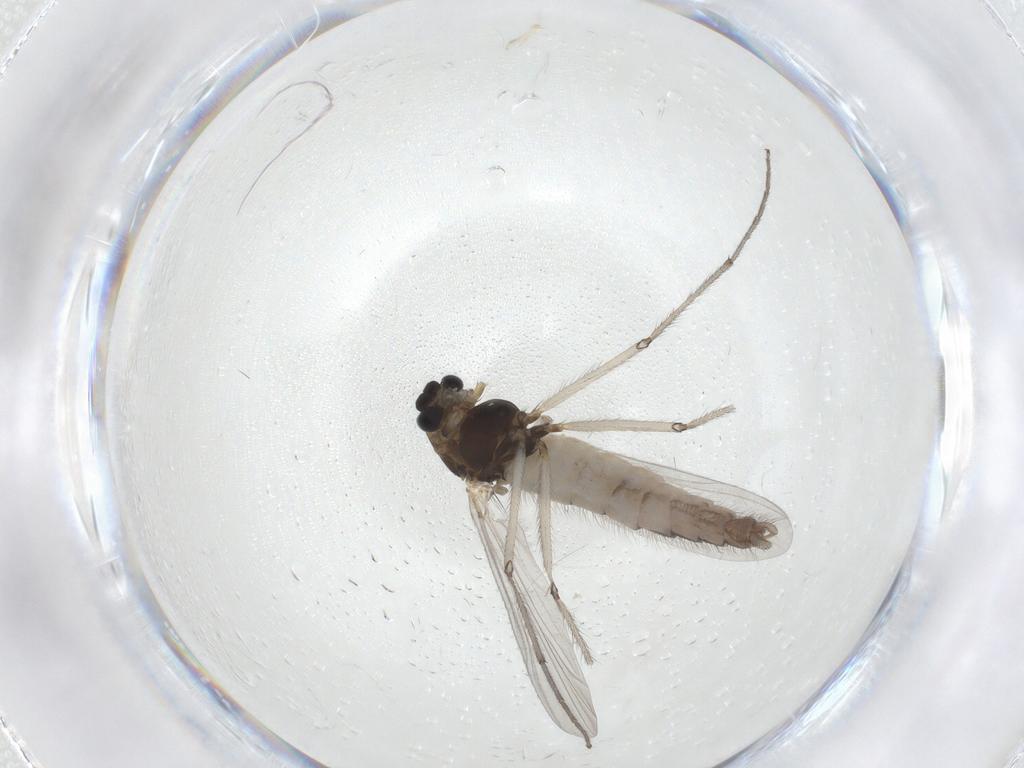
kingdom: Animalia
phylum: Arthropoda
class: Insecta
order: Diptera
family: Chironomidae
